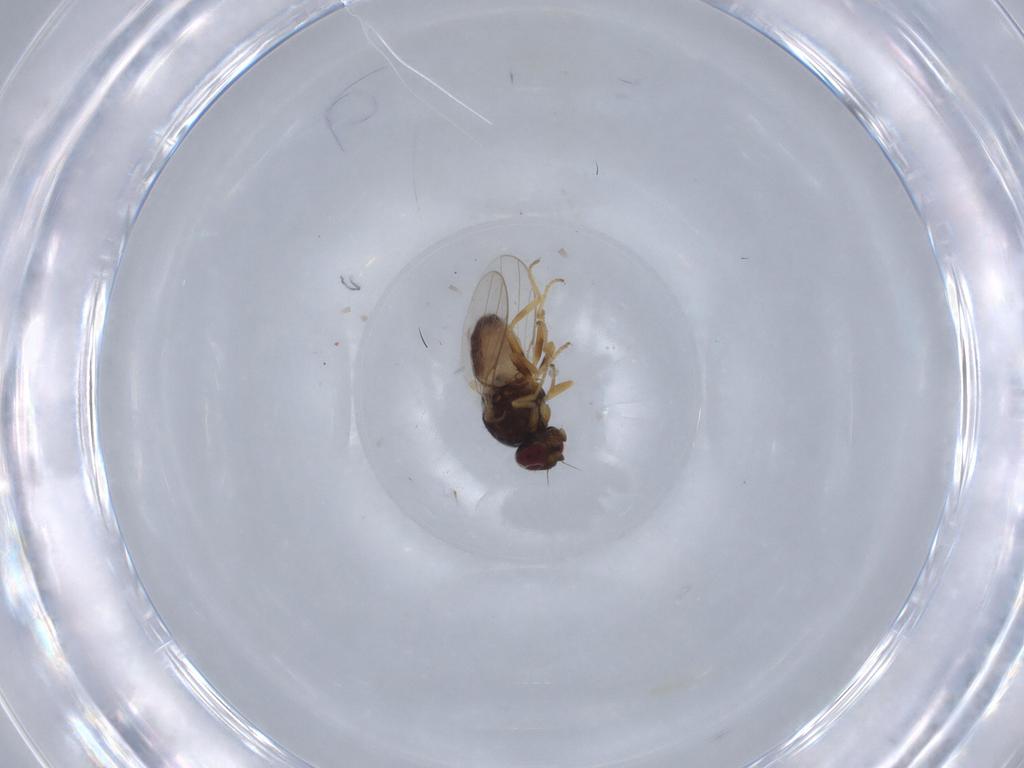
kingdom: Animalia
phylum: Arthropoda
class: Insecta
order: Diptera
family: Chloropidae
